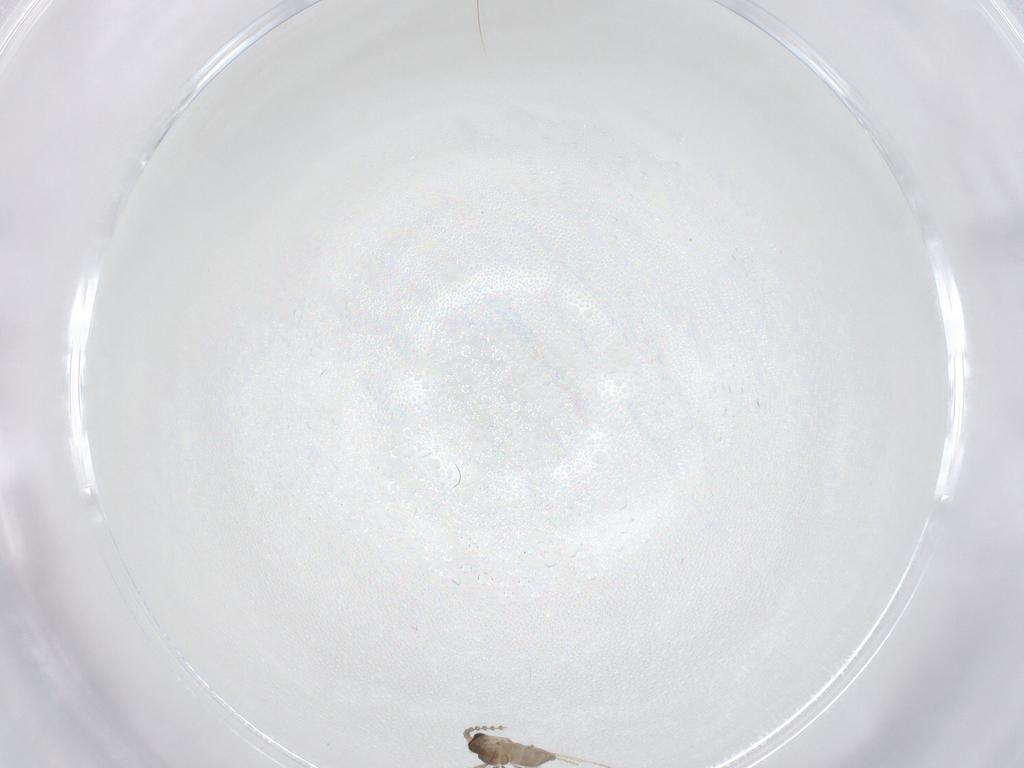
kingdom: Animalia
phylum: Arthropoda
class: Insecta
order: Diptera
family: Cecidomyiidae
